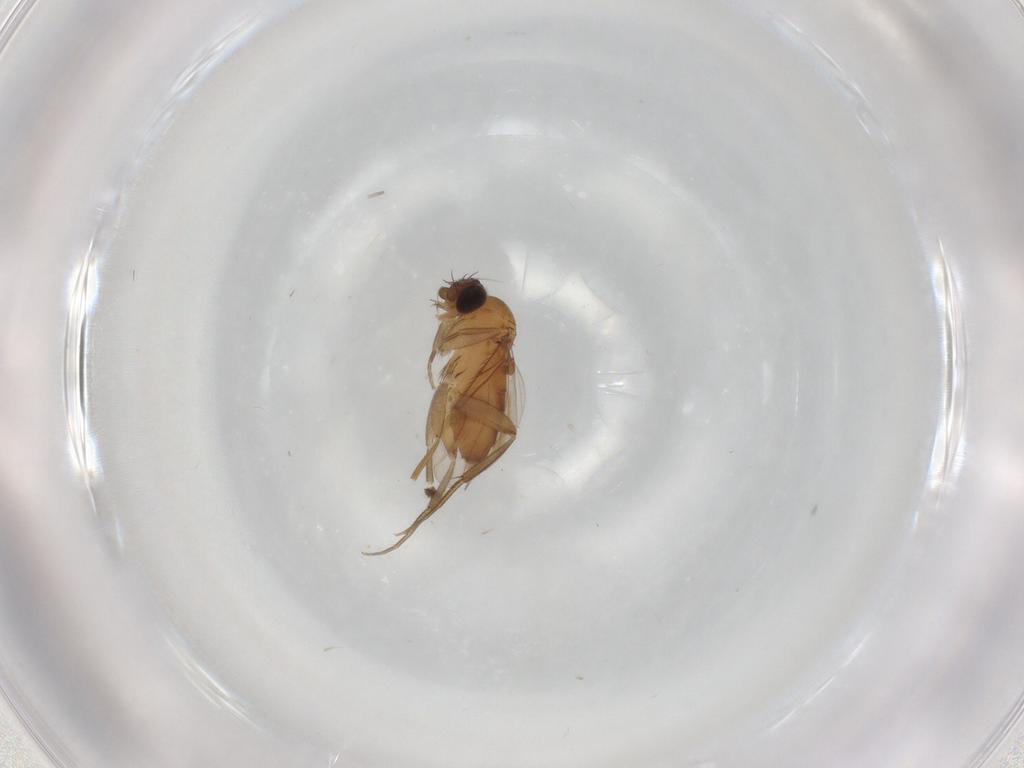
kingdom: Animalia
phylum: Arthropoda
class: Insecta
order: Diptera
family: Phoridae
